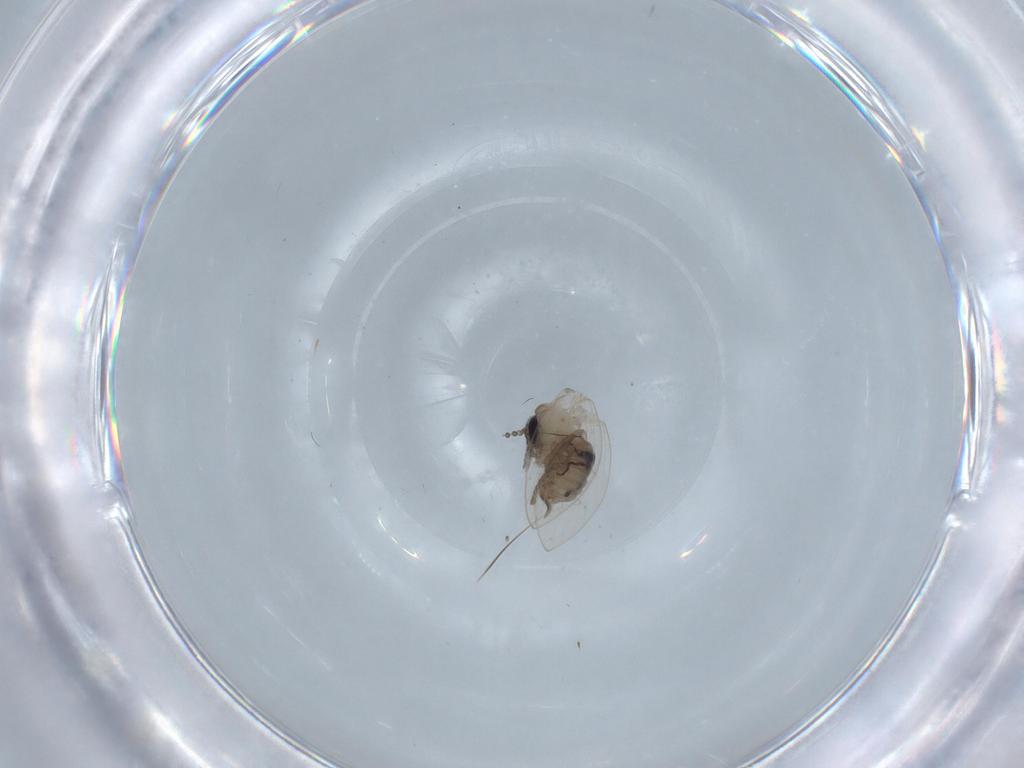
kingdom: Animalia
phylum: Arthropoda
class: Insecta
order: Diptera
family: Psychodidae
